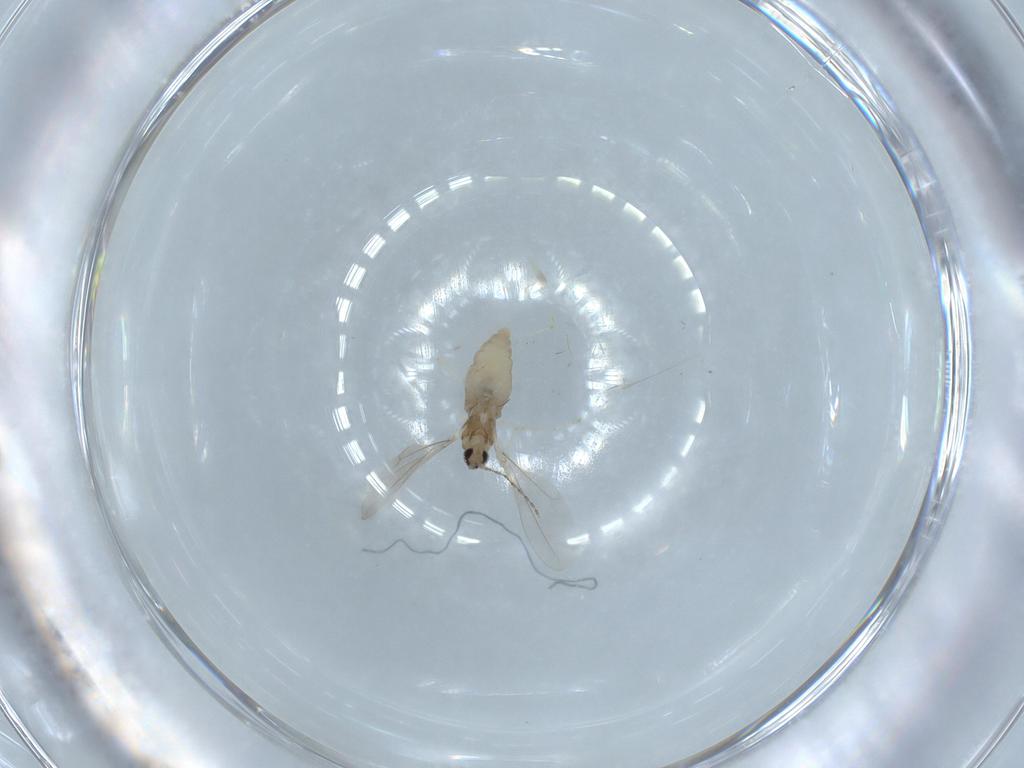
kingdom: Animalia
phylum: Arthropoda
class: Insecta
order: Diptera
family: Cecidomyiidae
